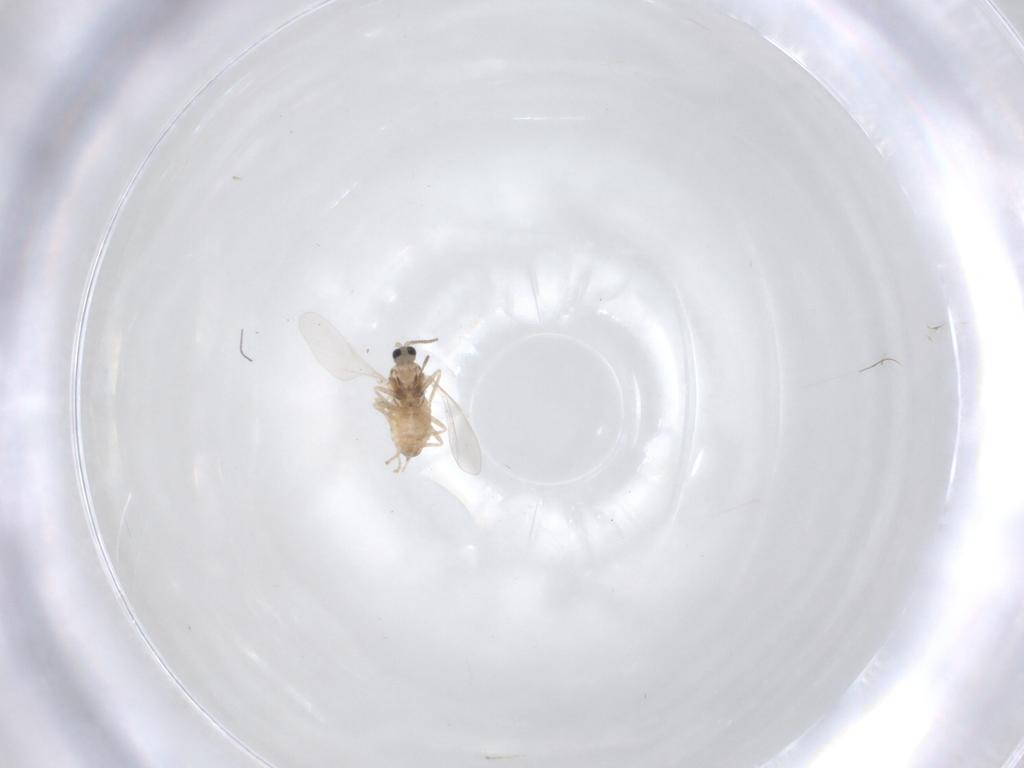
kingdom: Animalia
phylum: Arthropoda
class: Insecta
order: Diptera
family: Cecidomyiidae
